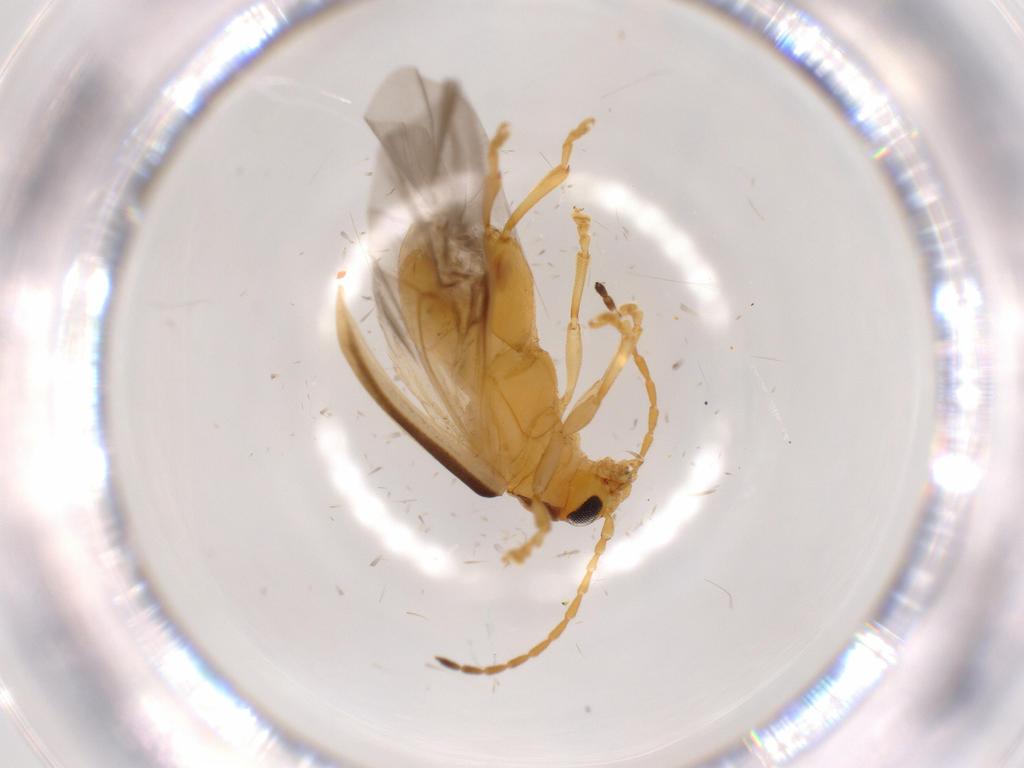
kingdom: Animalia
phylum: Arthropoda
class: Insecta
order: Coleoptera
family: Chrysomelidae
